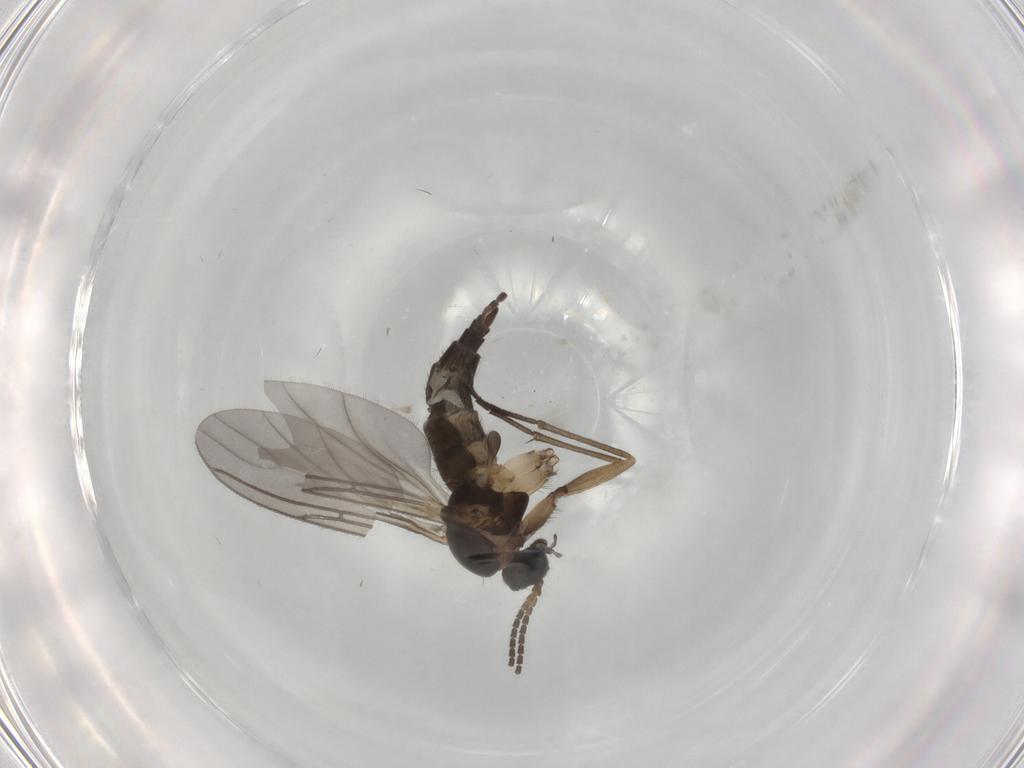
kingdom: Animalia
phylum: Arthropoda
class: Insecta
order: Diptera
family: Sciaridae
